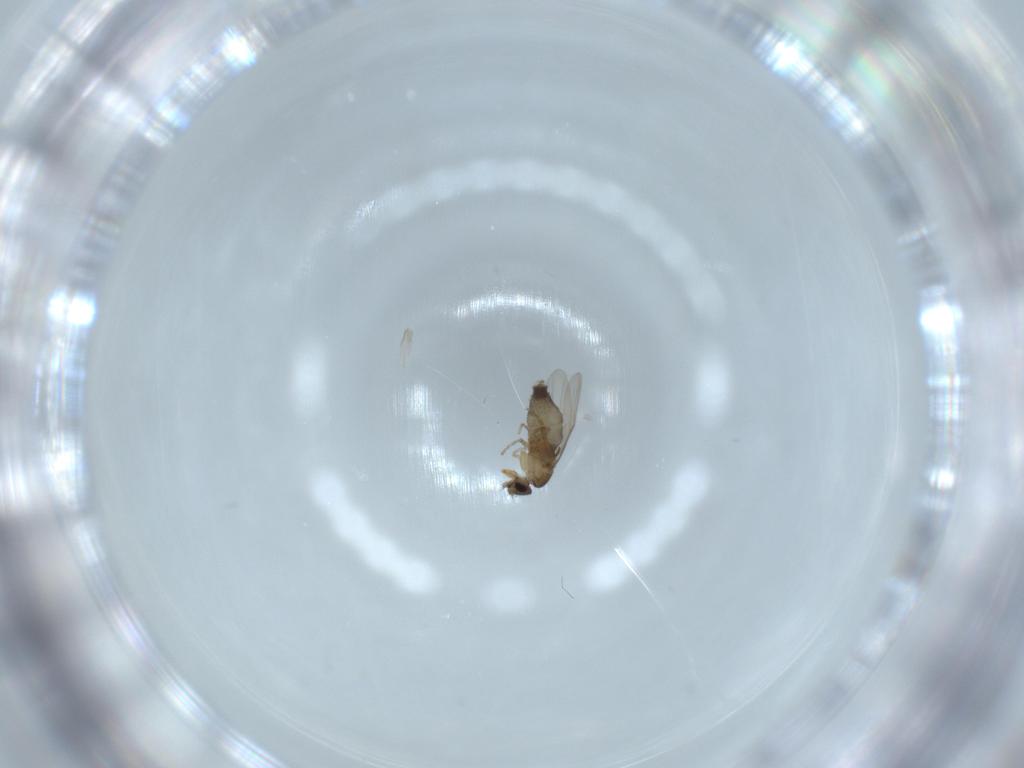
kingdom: Animalia
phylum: Arthropoda
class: Insecta
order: Diptera
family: Phoridae
